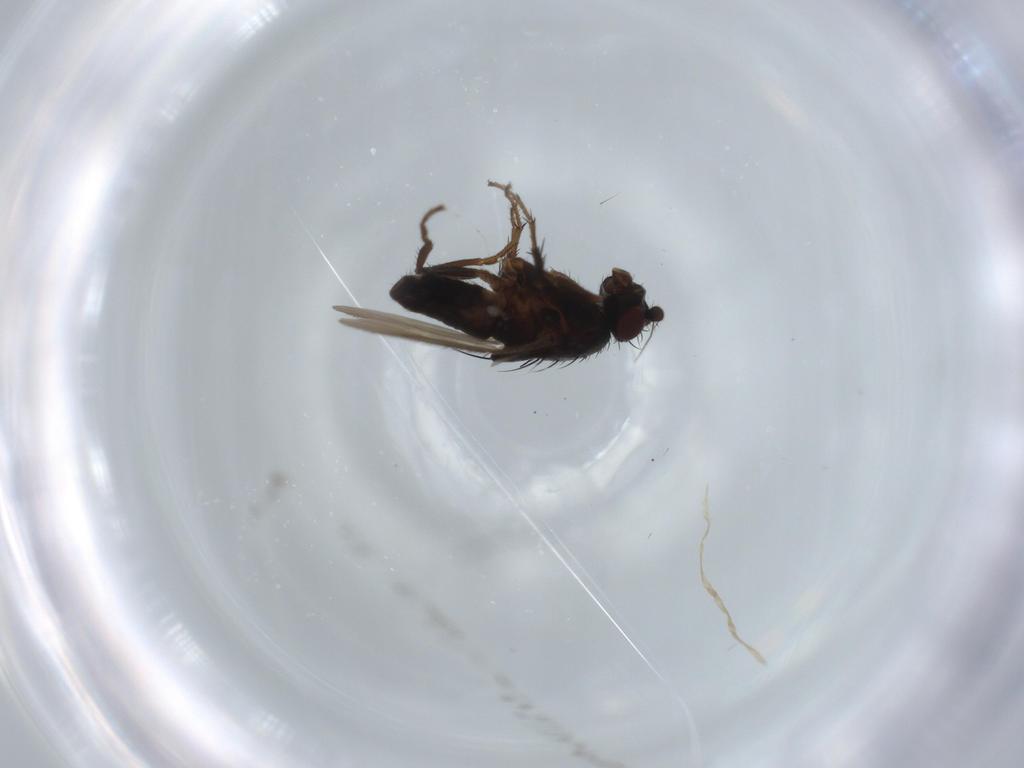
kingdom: Animalia
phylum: Arthropoda
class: Insecta
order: Diptera
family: Sphaeroceridae
